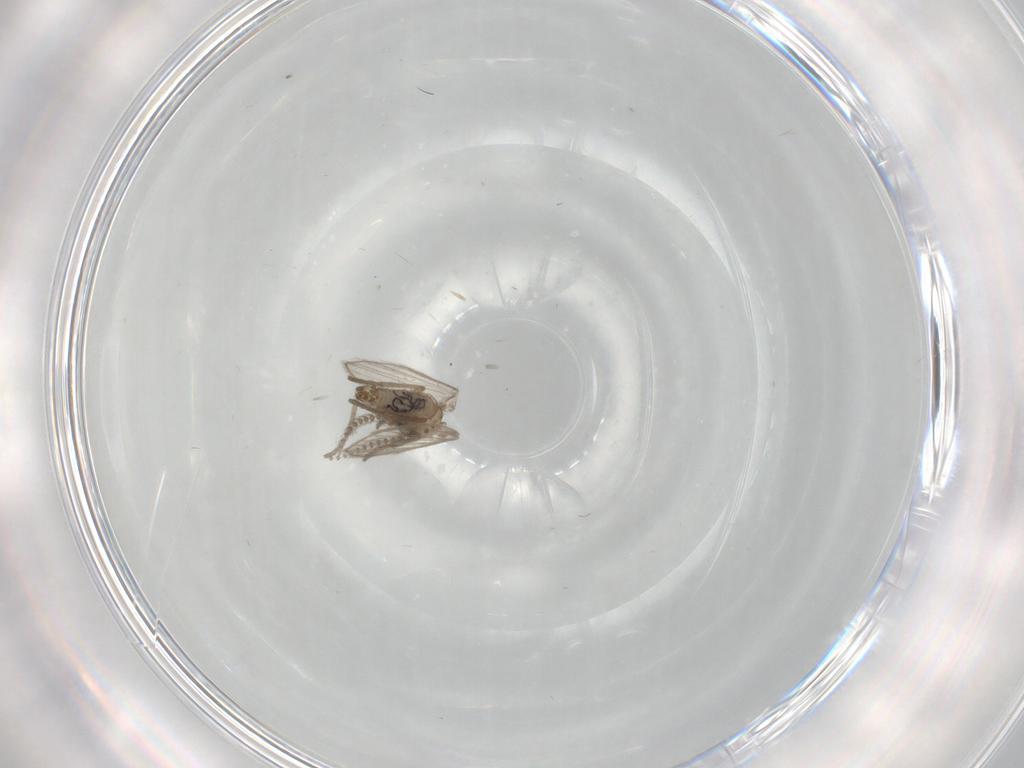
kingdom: Animalia
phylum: Arthropoda
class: Insecta
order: Diptera
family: Psychodidae
